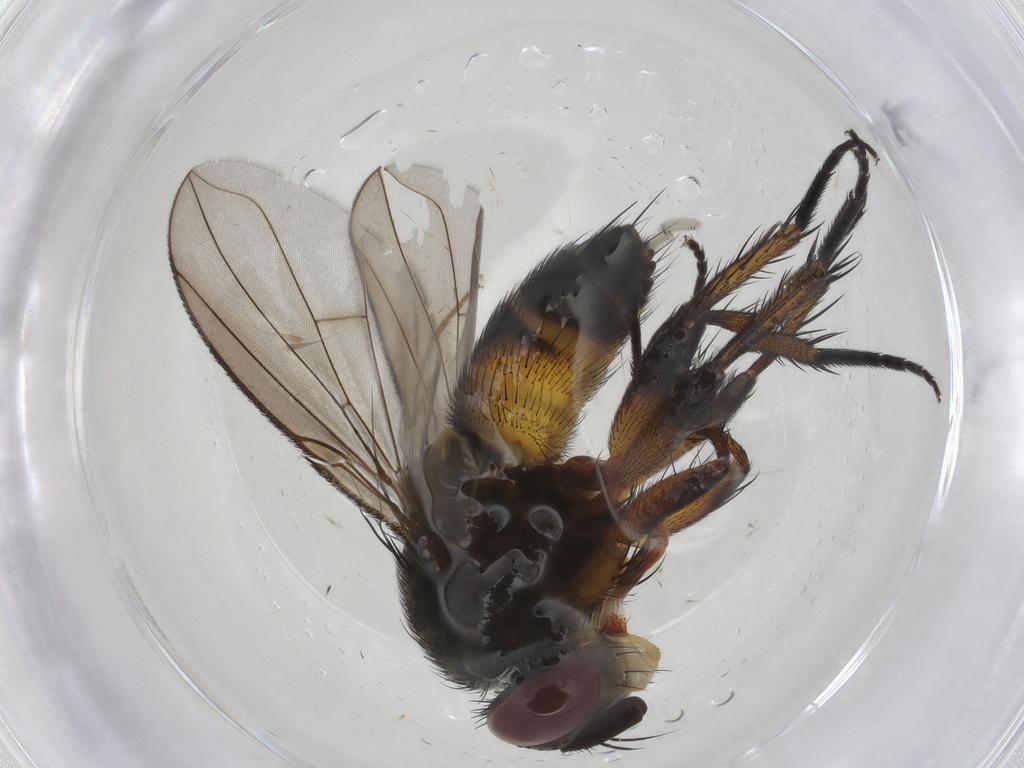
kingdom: Animalia
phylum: Arthropoda
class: Insecta
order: Diptera
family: Tachinidae
